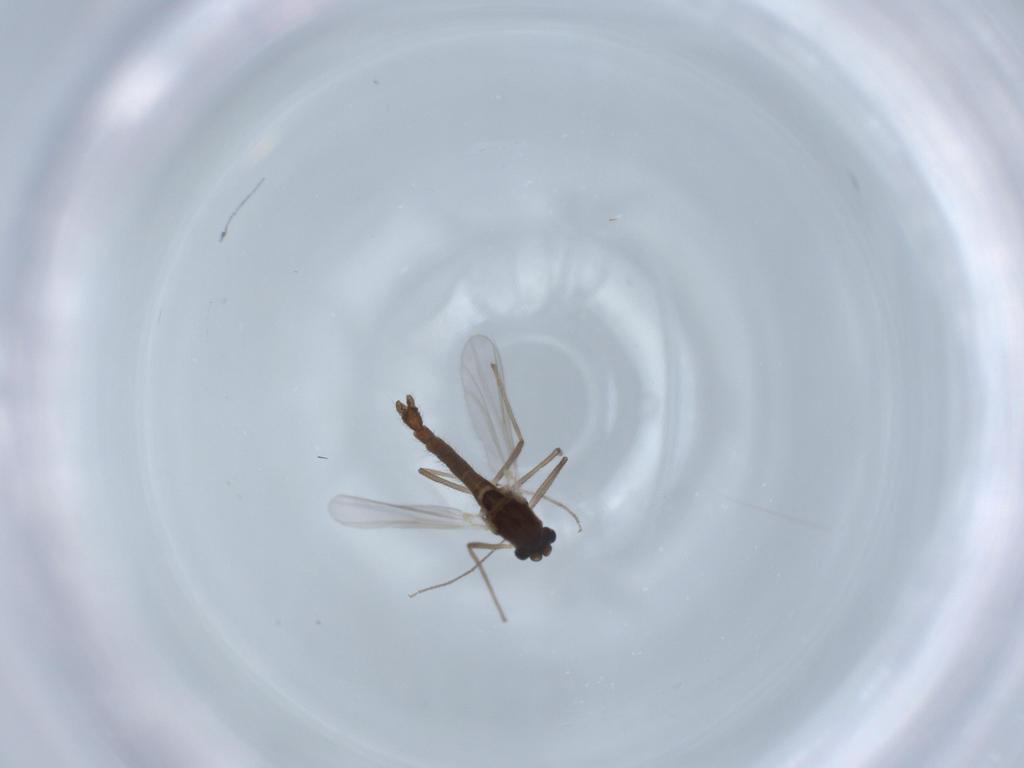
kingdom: Animalia
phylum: Arthropoda
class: Insecta
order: Diptera
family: Chironomidae
